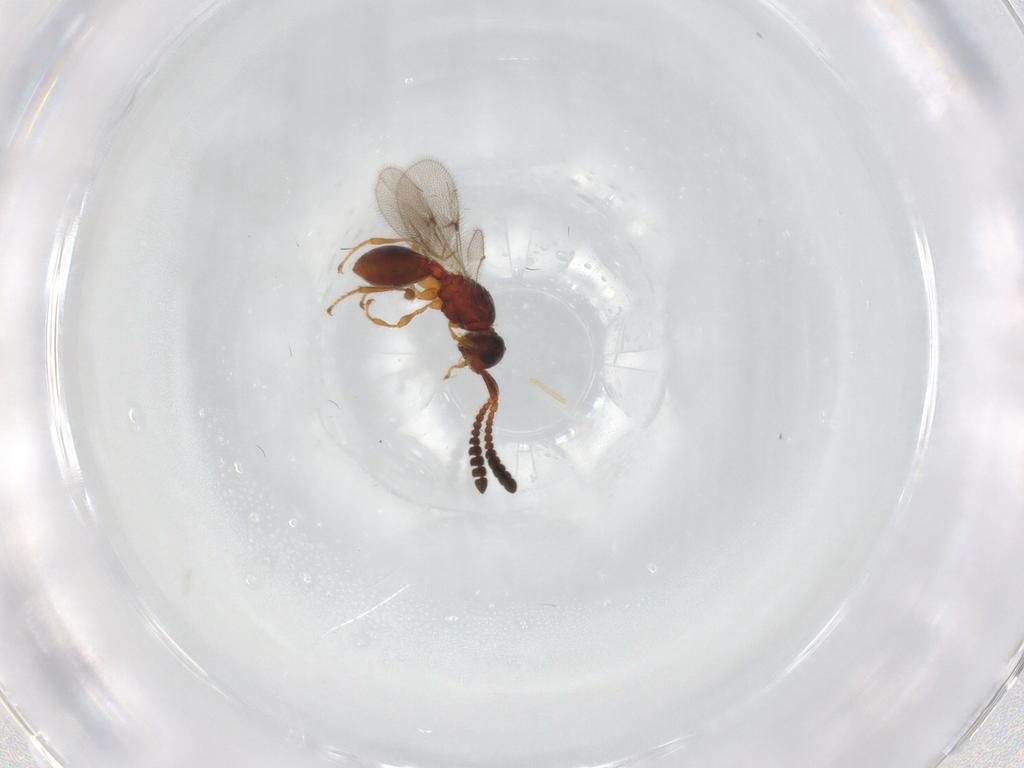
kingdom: Animalia
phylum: Arthropoda
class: Insecta
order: Hymenoptera
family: Diapriidae
